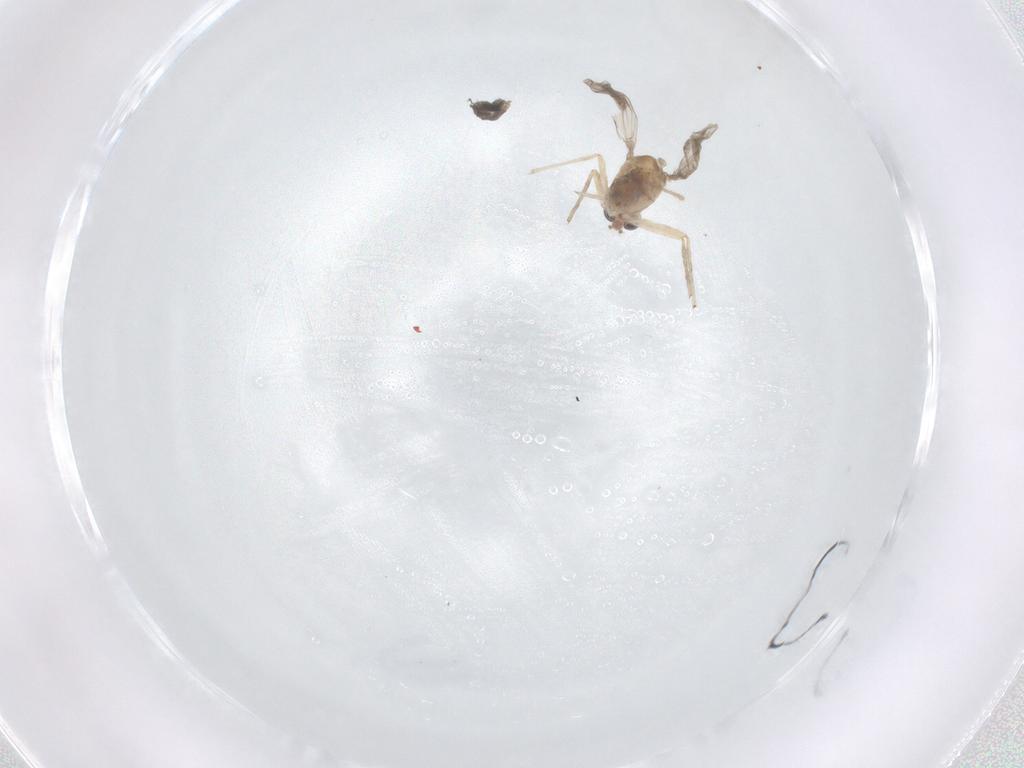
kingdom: Animalia
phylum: Arthropoda
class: Insecta
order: Diptera
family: Chironomidae
